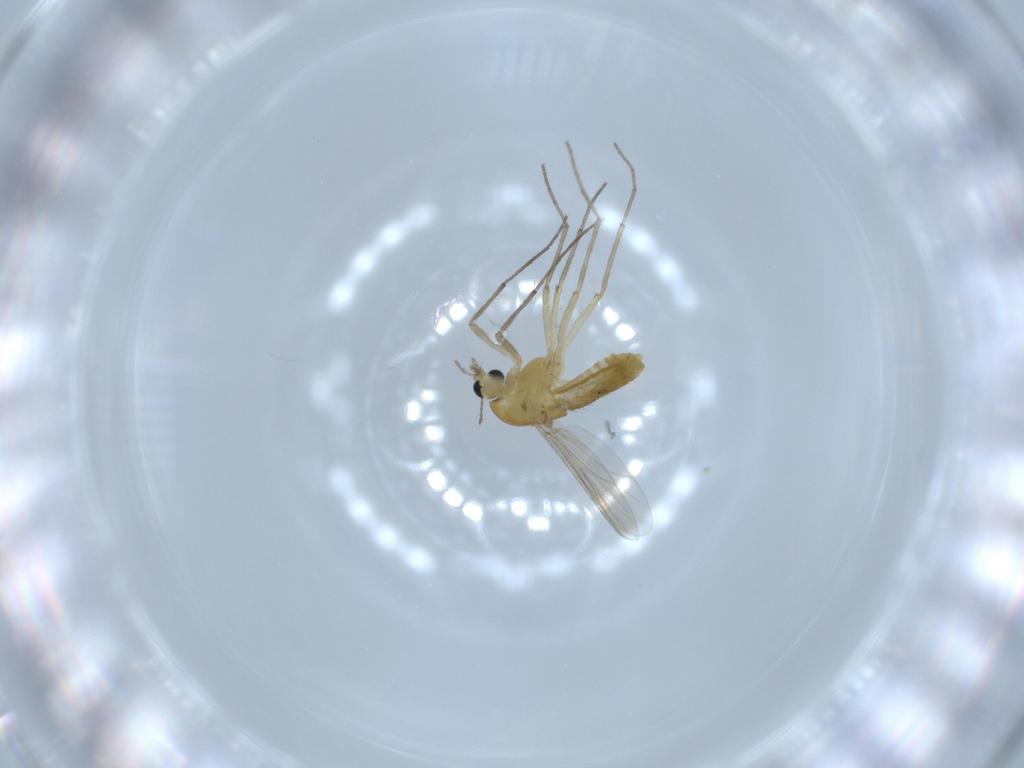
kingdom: Animalia
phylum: Arthropoda
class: Insecta
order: Diptera
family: Chironomidae
